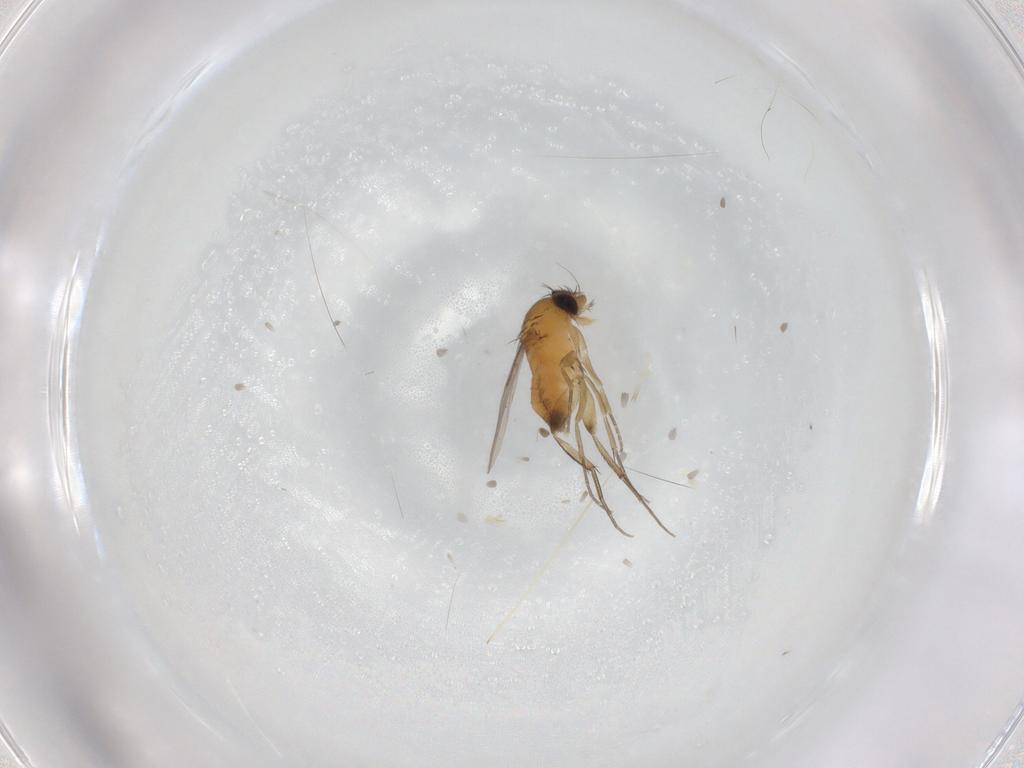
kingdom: Animalia
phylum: Arthropoda
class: Insecta
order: Diptera
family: Phoridae
